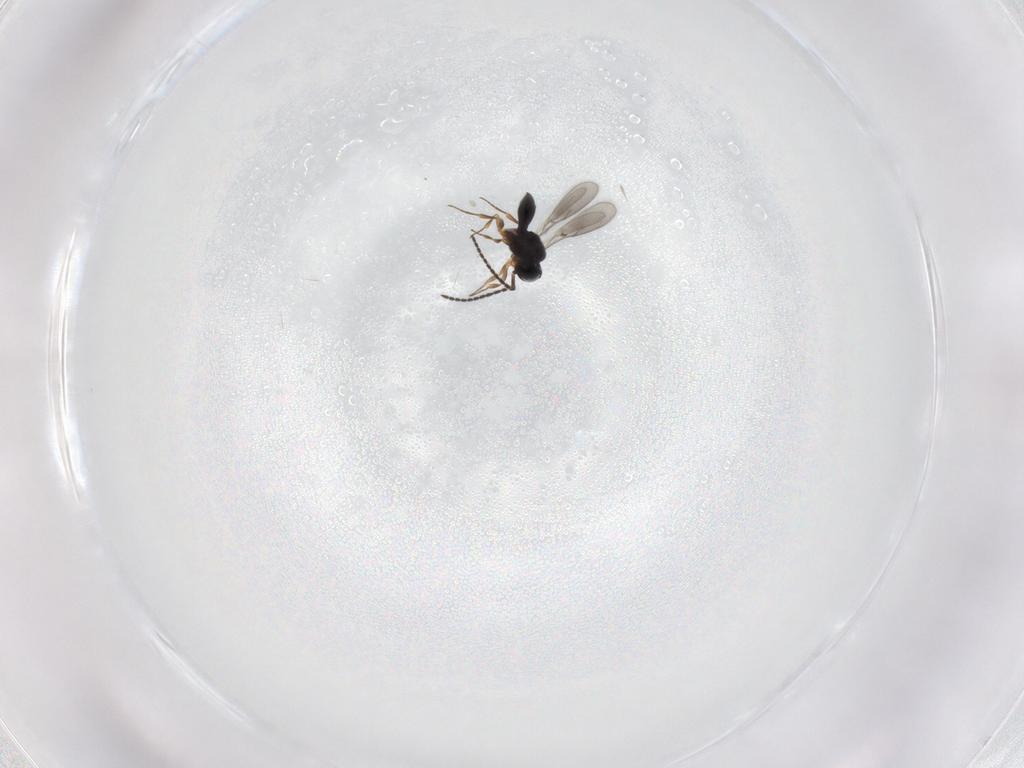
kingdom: Animalia
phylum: Arthropoda
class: Insecta
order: Hymenoptera
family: Scelionidae
